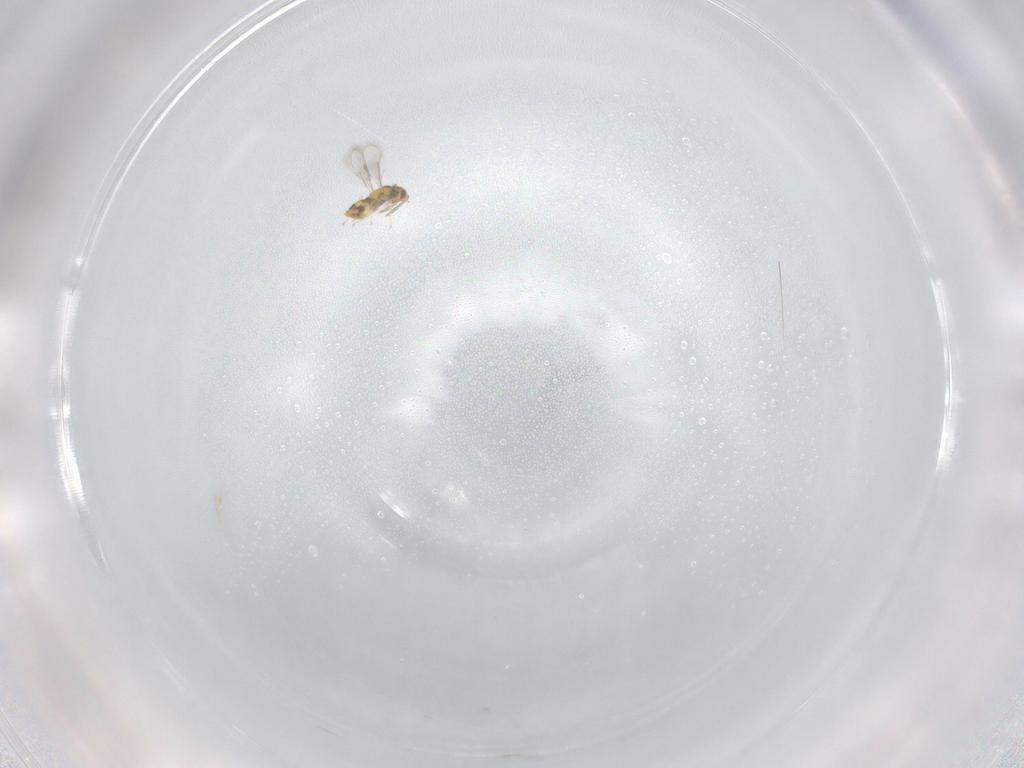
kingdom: Animalia
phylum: Arthropoda
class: Insecta
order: Hymenoptera
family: Aphelinidae
